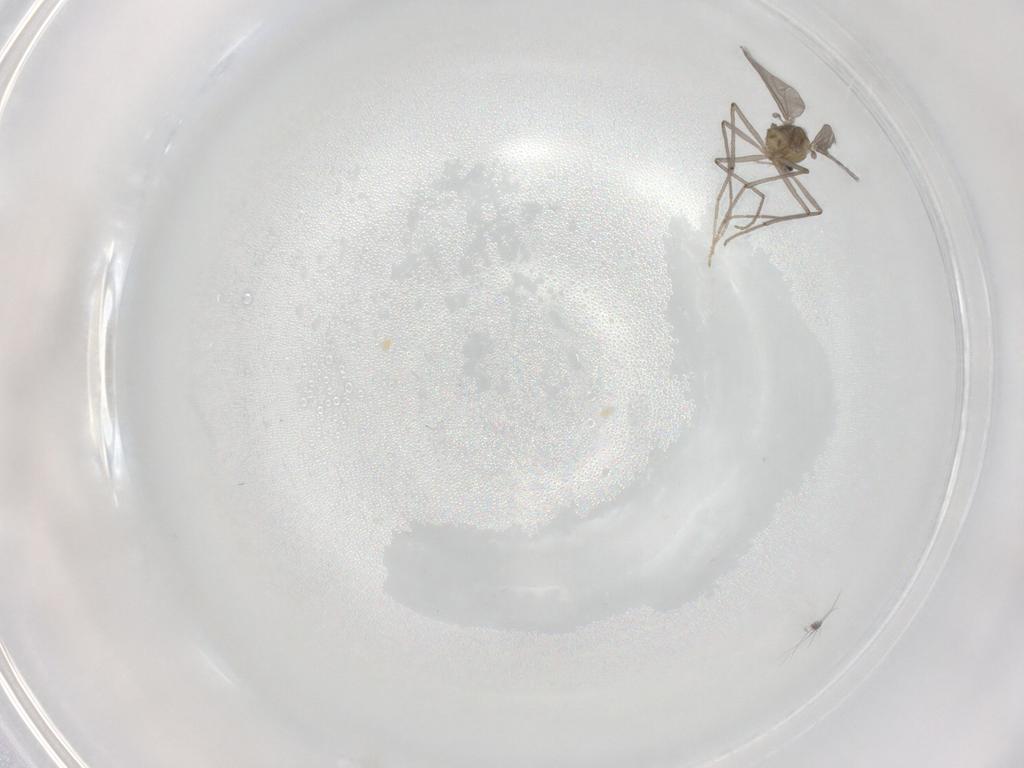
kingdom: Animalia
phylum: Arthropoda
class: Insecta
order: Diptera
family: Chironomidae
